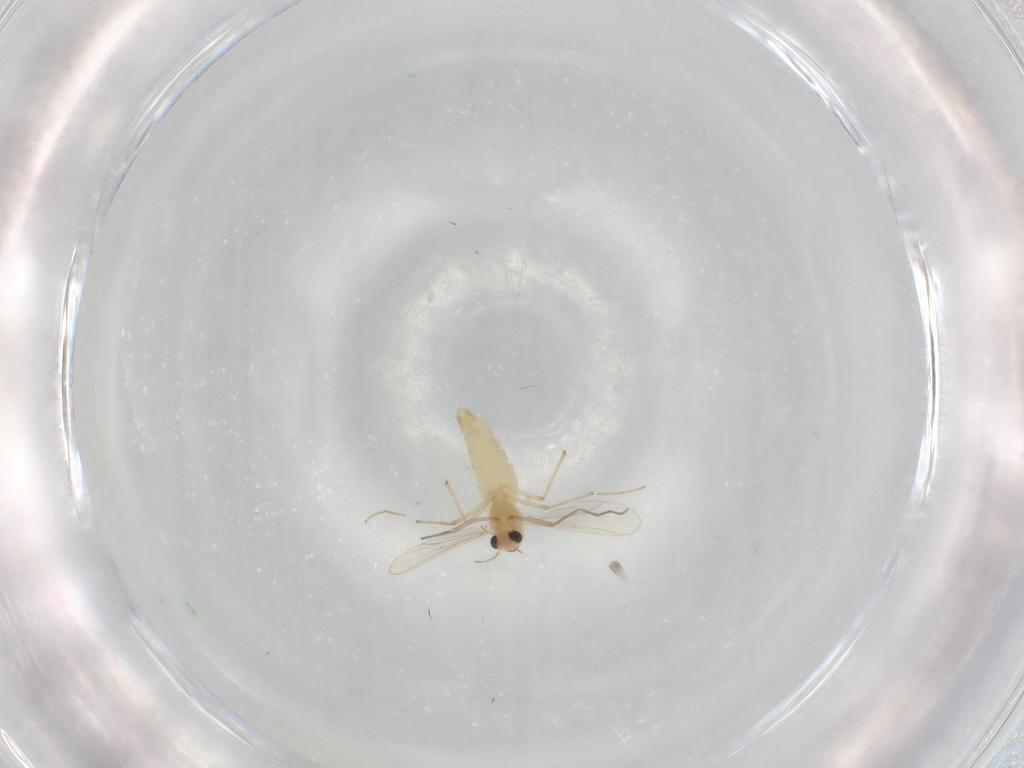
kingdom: Animalia
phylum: Arthropoda
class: Insecta
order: Diptera
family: Chironomidae
